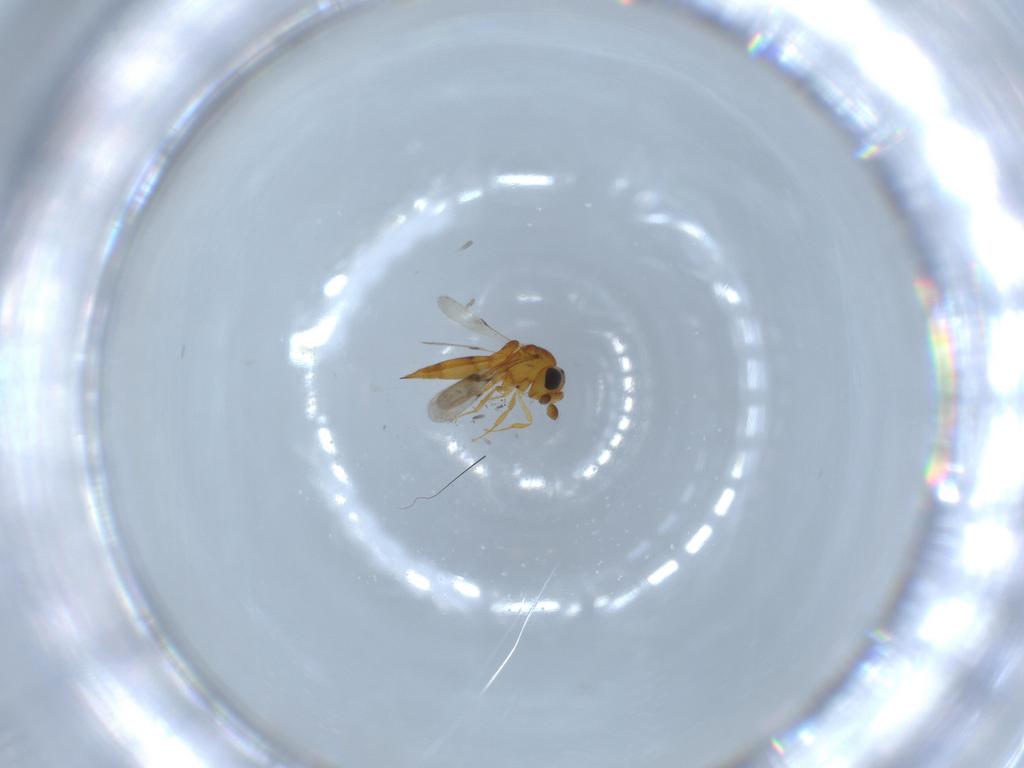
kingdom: Animalia
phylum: Arthropoda
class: Insecta
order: Hymenoptera
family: Scelionidae
